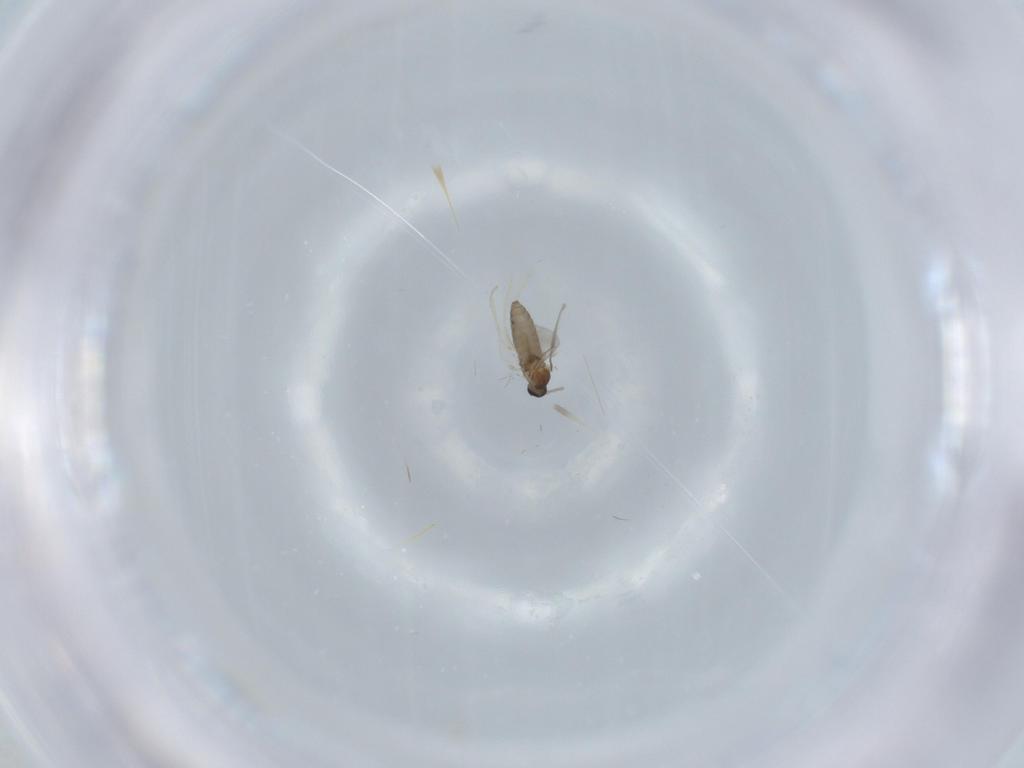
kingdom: Animalia
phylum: Arthropoda
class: Insecta
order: Diptera
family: Cecidomyiidae
